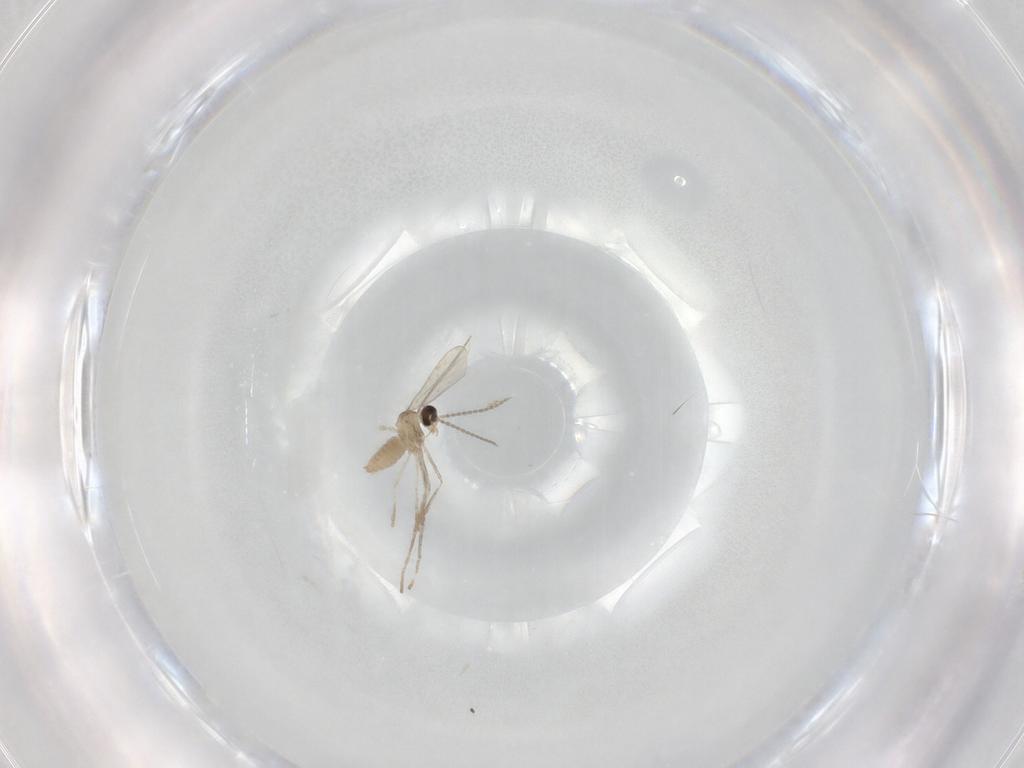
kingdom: Animalia
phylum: Arthropoda
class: Insecta
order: Diptera
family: Cecidomyiidae
